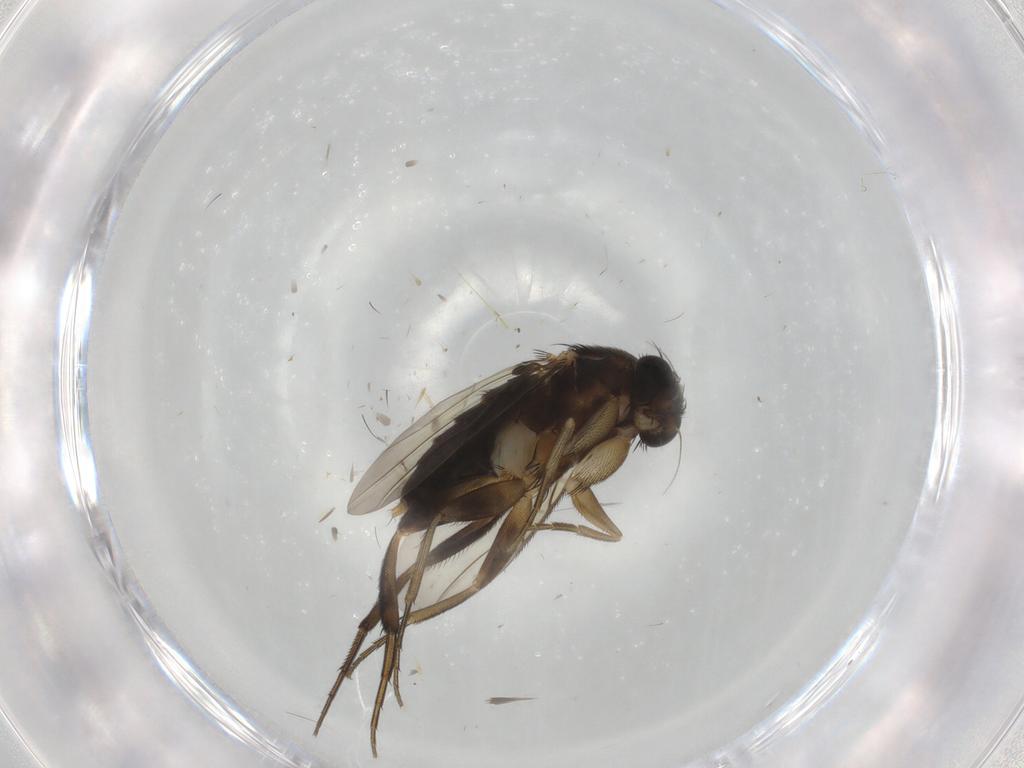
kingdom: Animalia
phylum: Arthropoda
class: Insecta
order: Diptera
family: Phoridae
